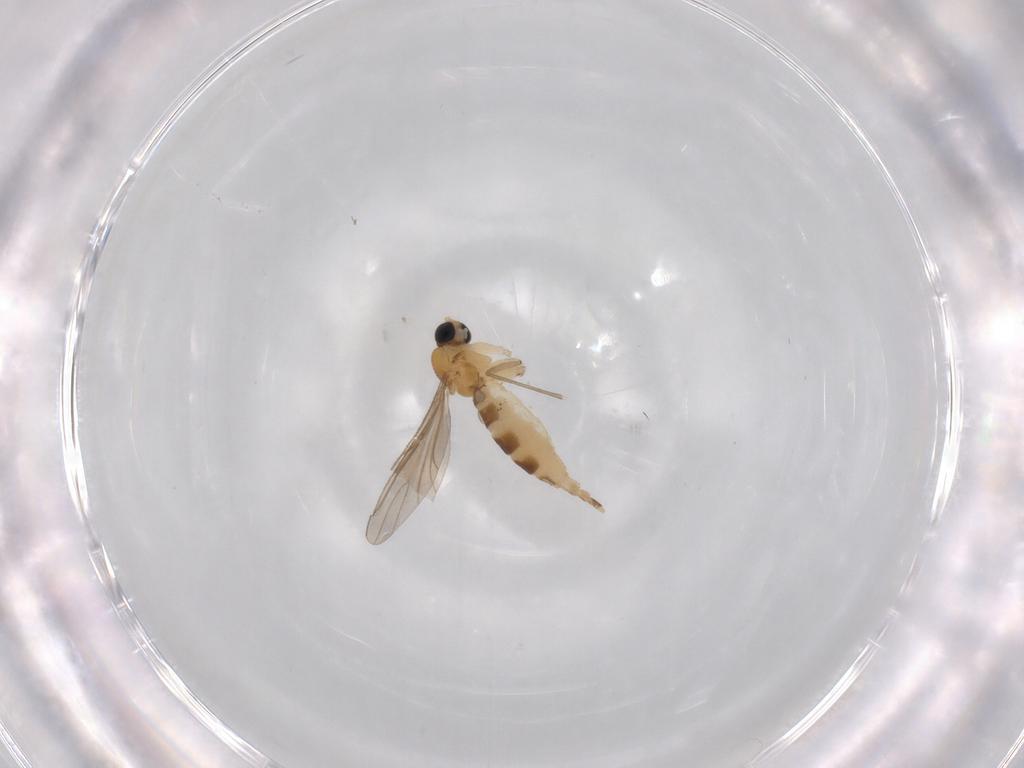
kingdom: Animalia
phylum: Arthropoda
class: Insecta
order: Diptera
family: Sciaridae
